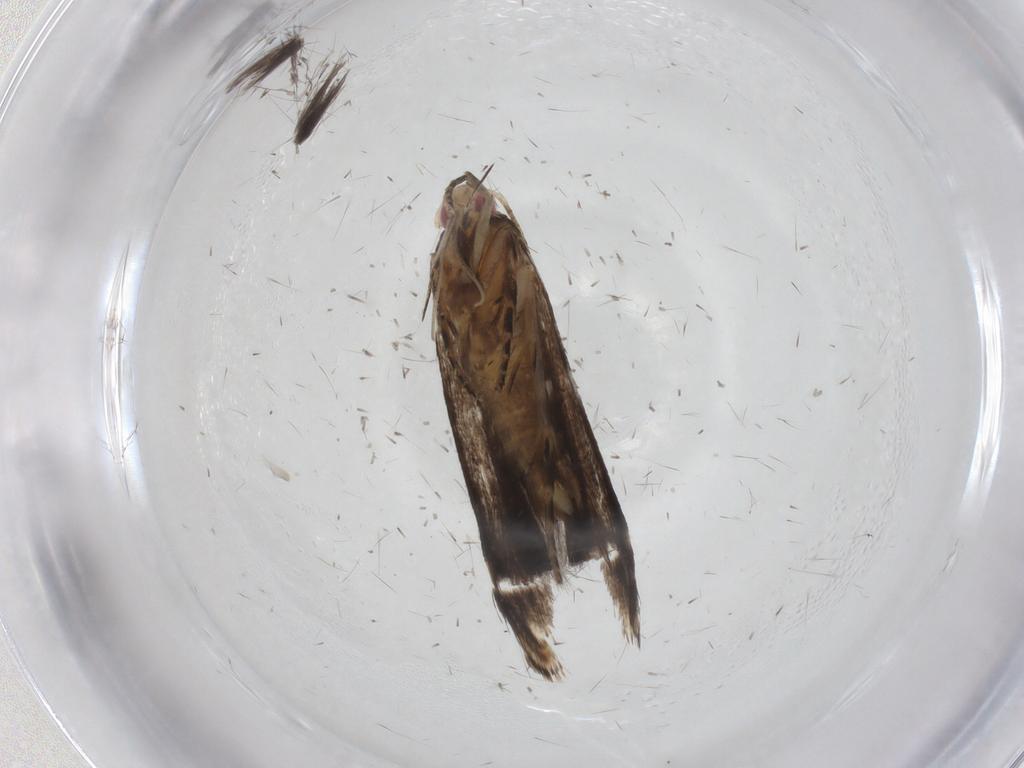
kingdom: Animalia
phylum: Arthropoda
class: Insecta
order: Lepidoptera
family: Gelechiidae
